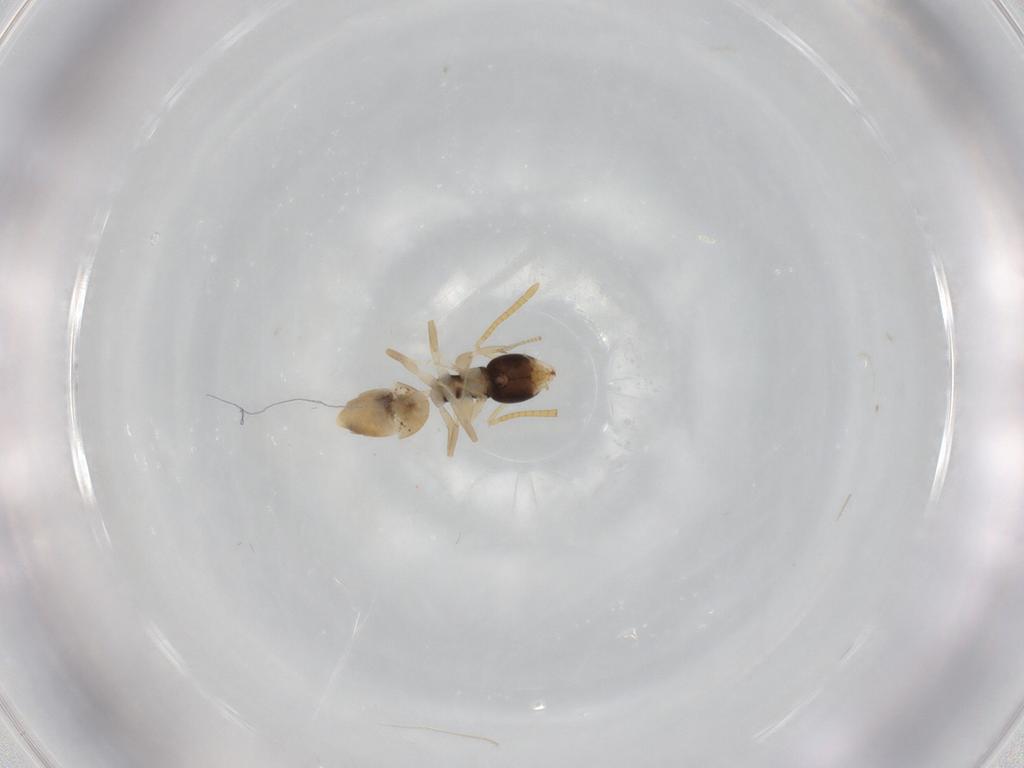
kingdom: Animalia
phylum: Arthropoda
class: Insecta
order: Hymenoptera
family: Formicidae
